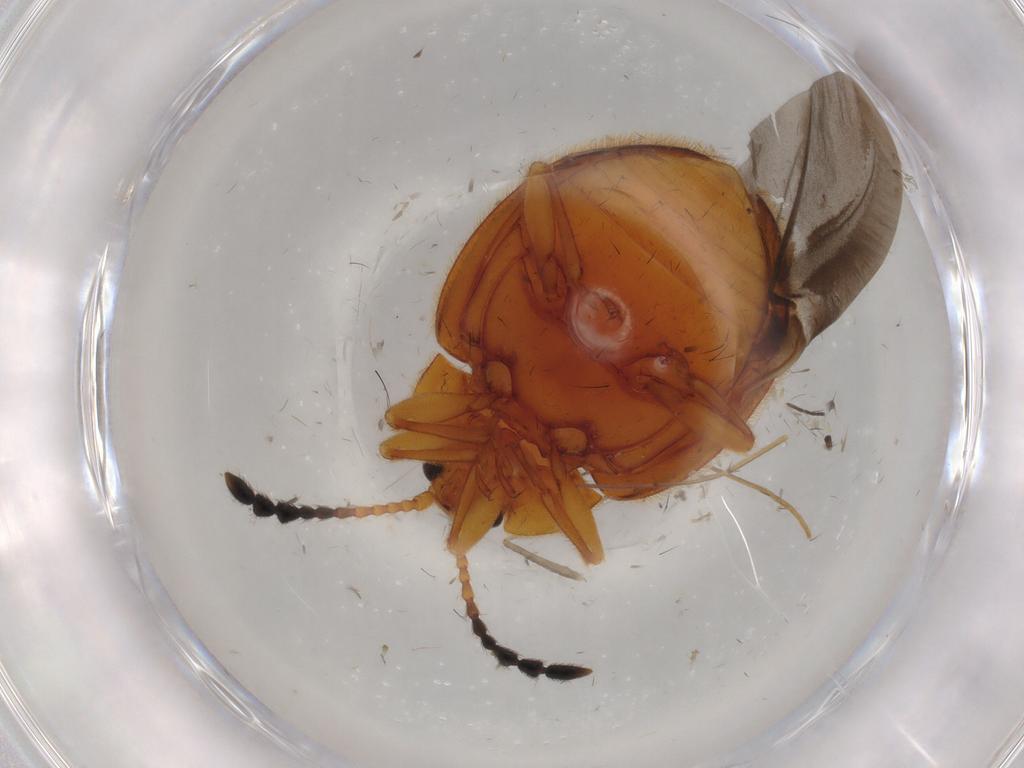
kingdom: Animalia
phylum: Arthropoda
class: Insecta
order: Coleoptera
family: Endomychidae
